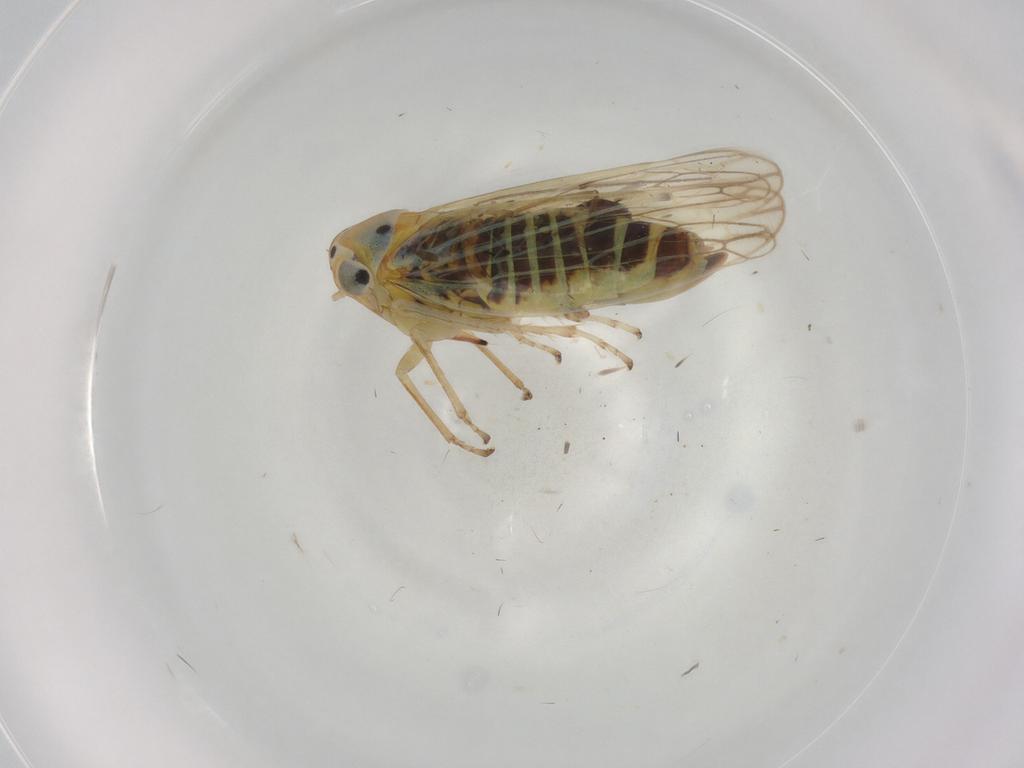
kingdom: Animalia
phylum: Arthropoda
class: Insecta
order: Hemiptera
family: Cicadellidae
